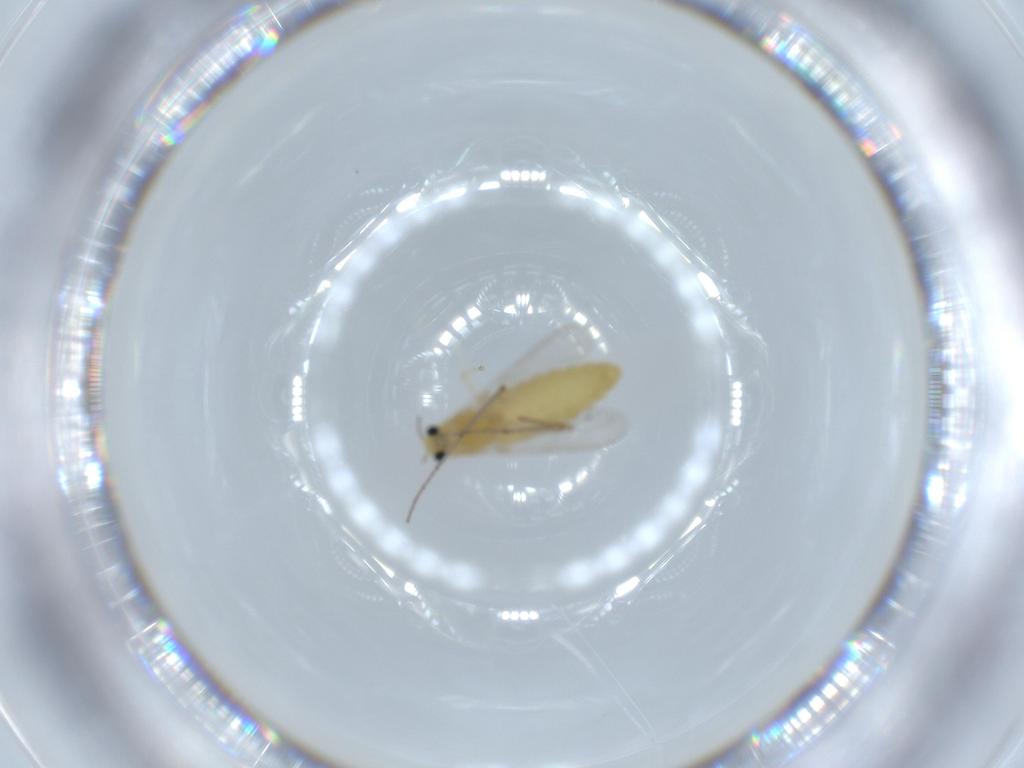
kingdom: Animalia
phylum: Arthropoda
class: Insecta
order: Diptera
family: Chironomidae
